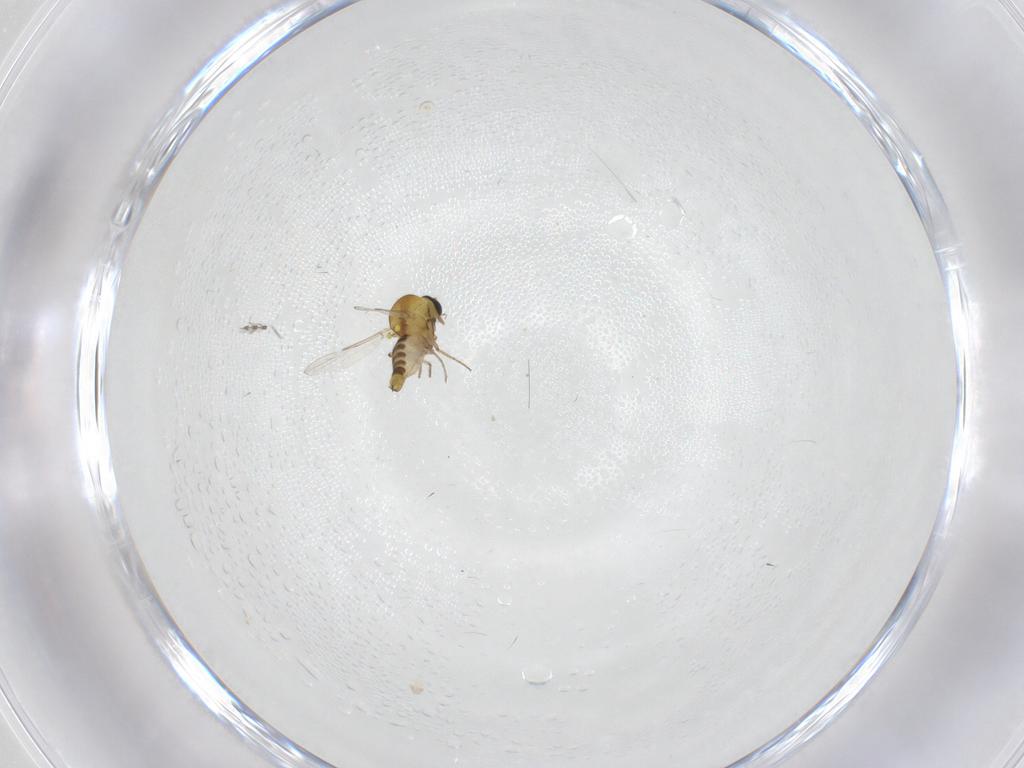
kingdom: Animalia
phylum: Arthropoda
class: Insecta
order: Diptera
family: Ceratopogonidae
